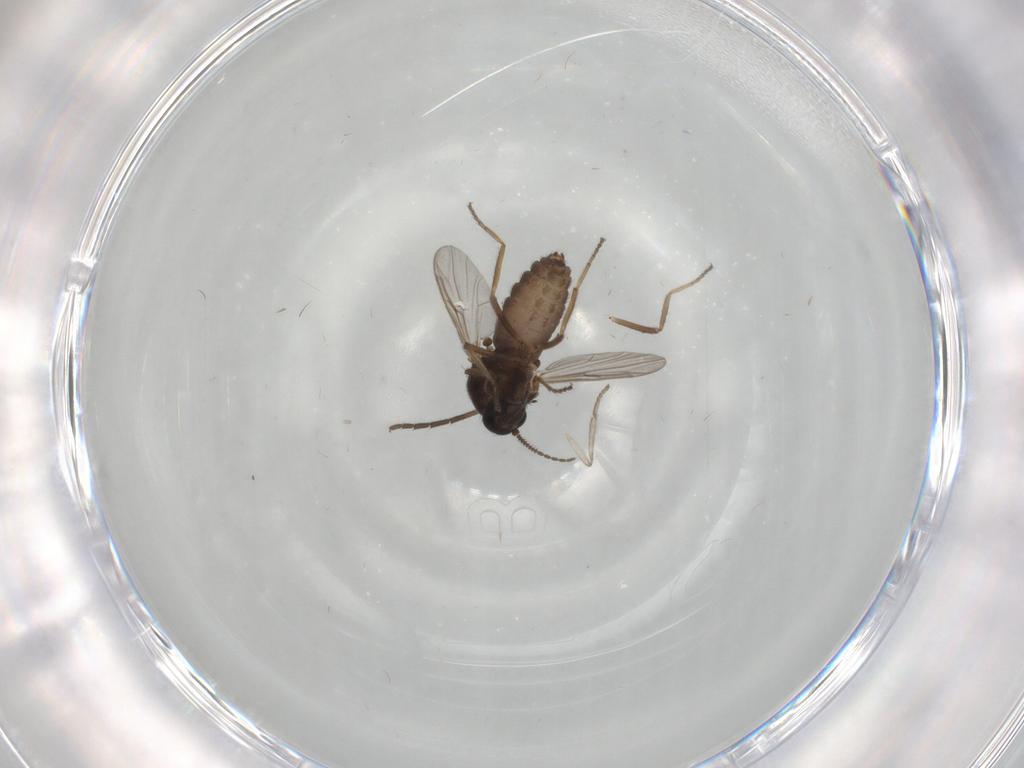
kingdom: Animalia
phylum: Arthropoda
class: Insecta
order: Diptera
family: Ceratopogonidae
